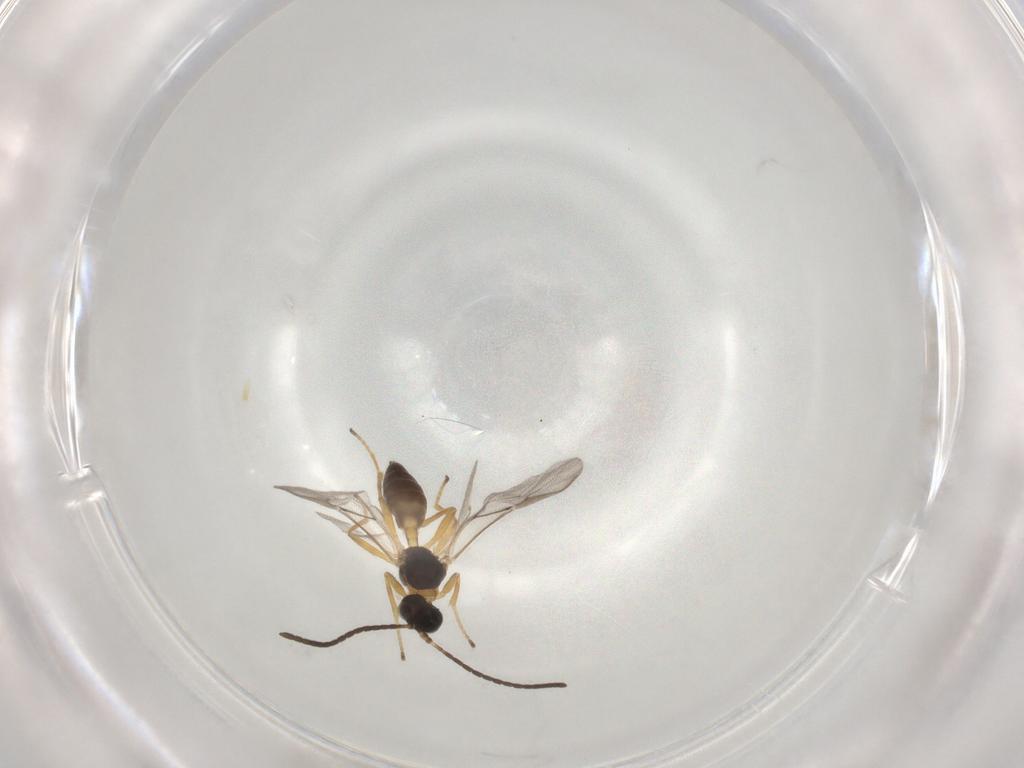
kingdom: Animalia
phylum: Arthropoda
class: Insecta
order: Hymenoptera
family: Braconidae
